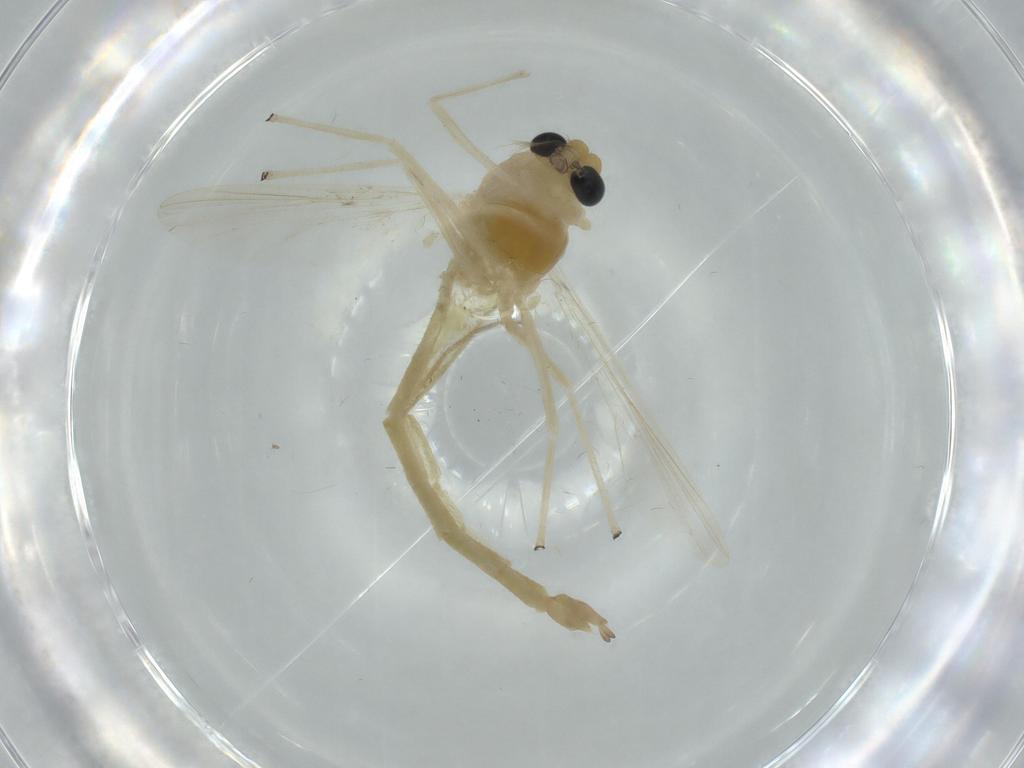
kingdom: Animalia
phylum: Arthropoda
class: Insecta
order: Diptera
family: Chironomidae
